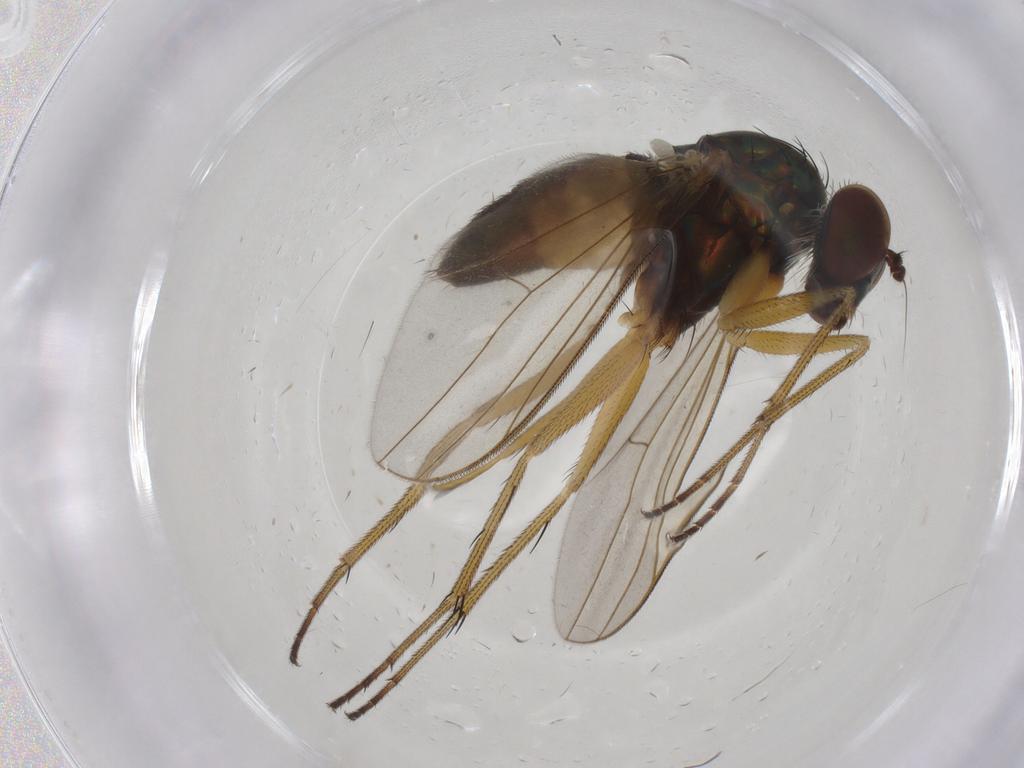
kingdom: Animalia
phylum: Arthropoda
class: Insecta
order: Diptera
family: Dolichopodidae
